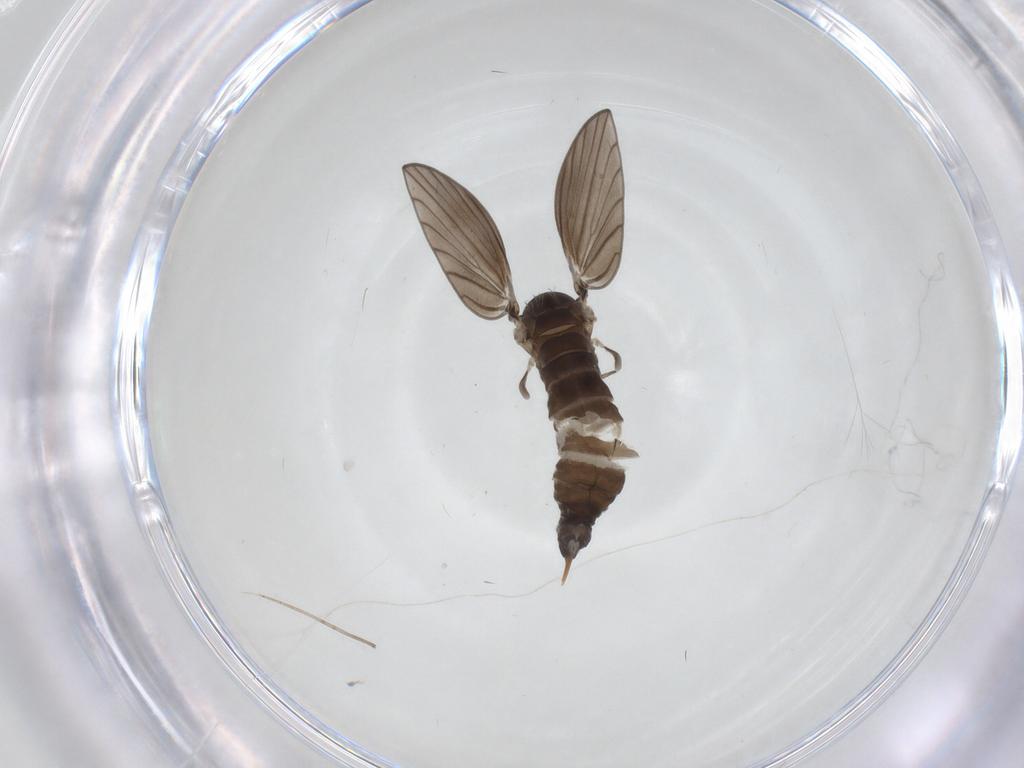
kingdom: Animalia
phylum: Arthropoda
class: Insecta
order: Diptera
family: Psychodidae
